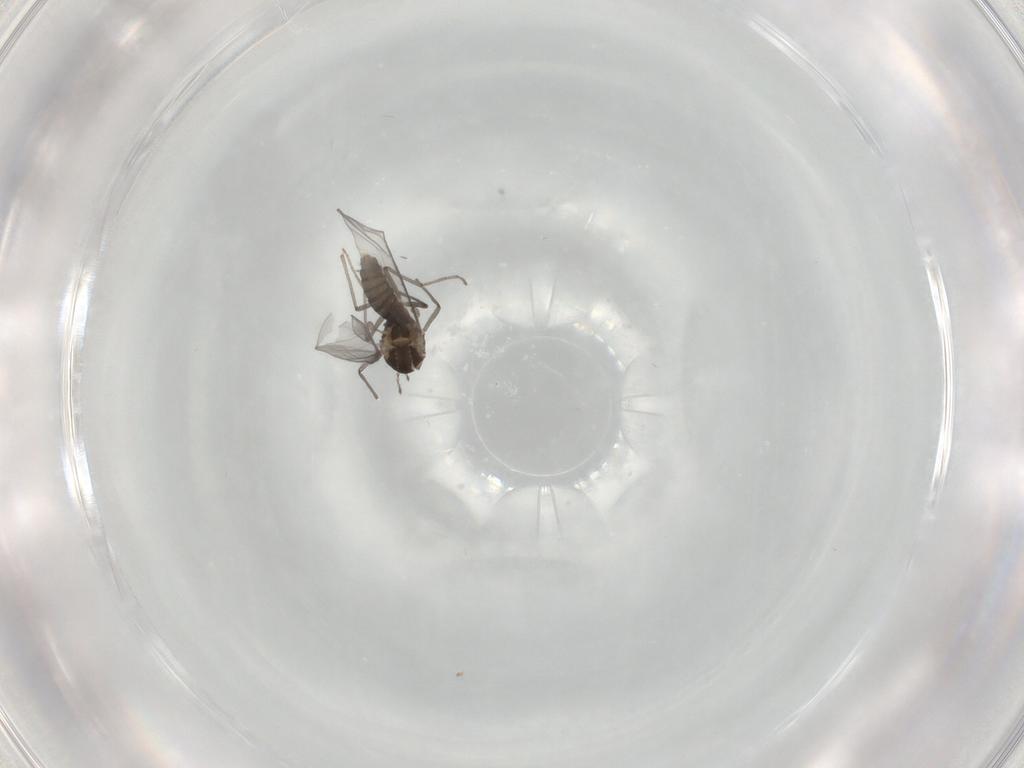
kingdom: Animalia
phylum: Arthropoda
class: Insecta
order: Diptera
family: Chironomidae
